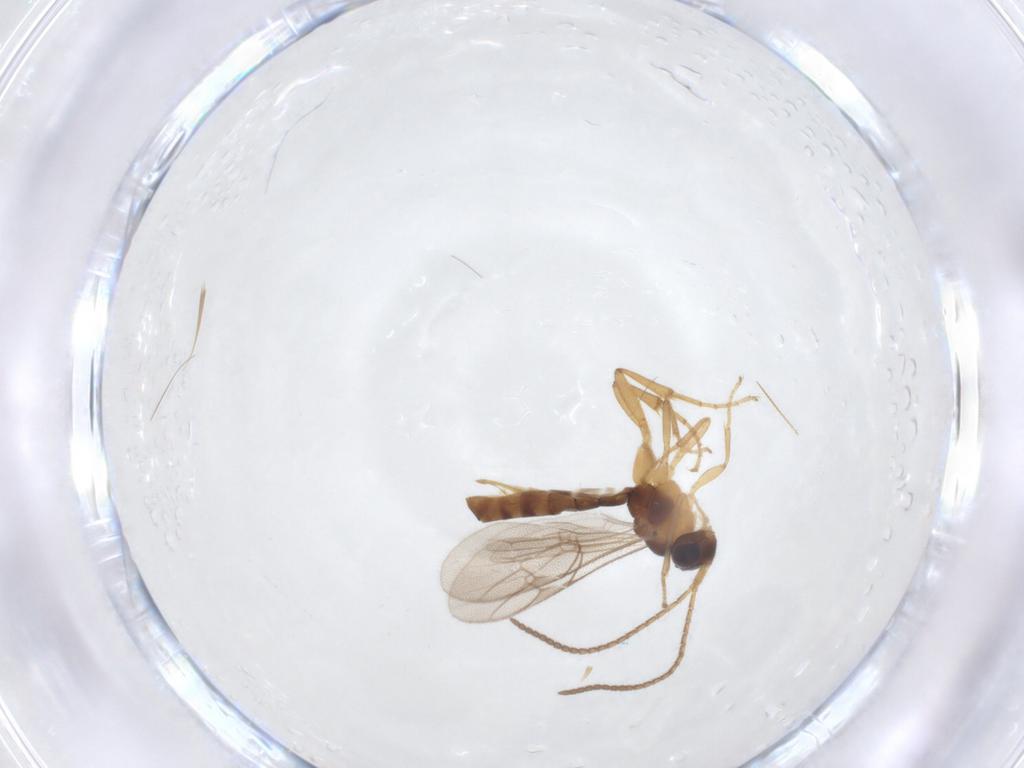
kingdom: Animalia
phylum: Arthropoda
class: Insecta
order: Hymenoptera
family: Ichneumonidae
